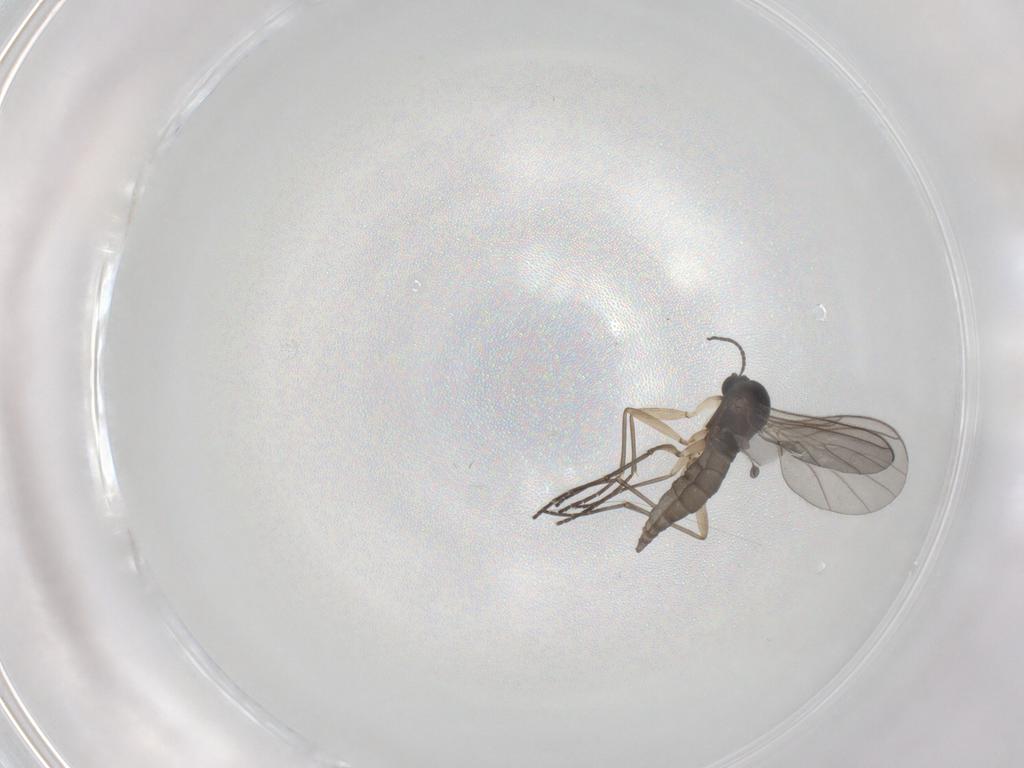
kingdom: Animalia
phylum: Arthropoda
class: Insecta
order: Diptera
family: Sciaridae
